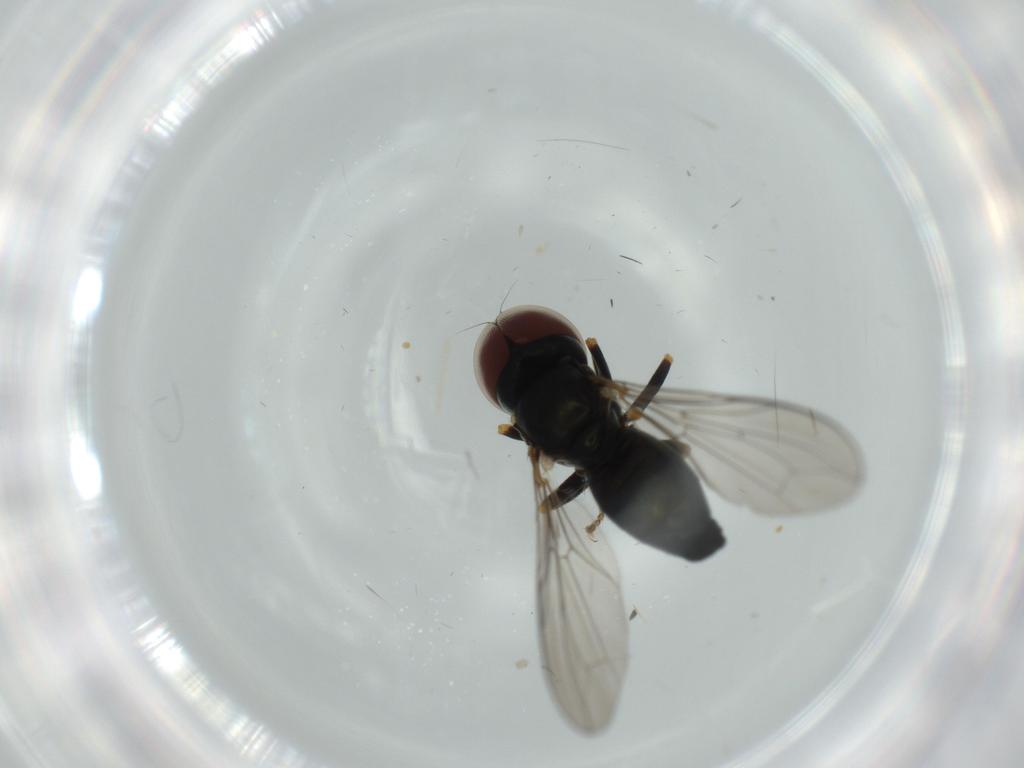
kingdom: Animalia
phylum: Arthropoda
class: Insecta
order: Diptera
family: Pipunculidae
